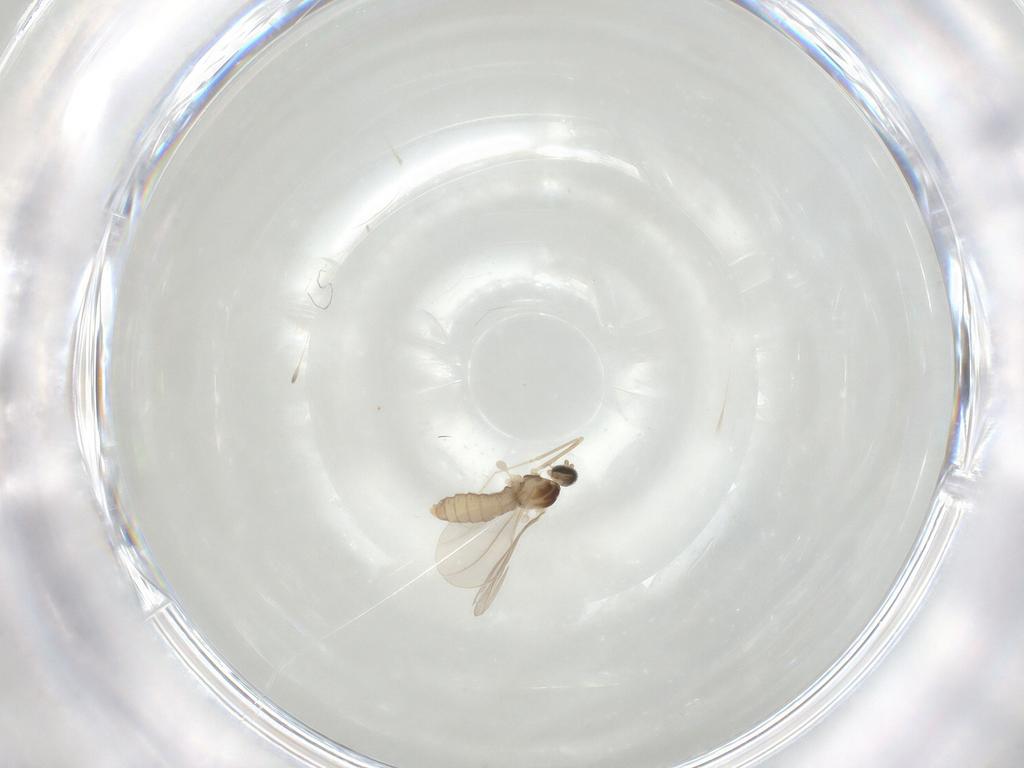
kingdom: Animalia
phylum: Arthropoda
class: Insecta
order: Diptera
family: Cecidomyiidae
